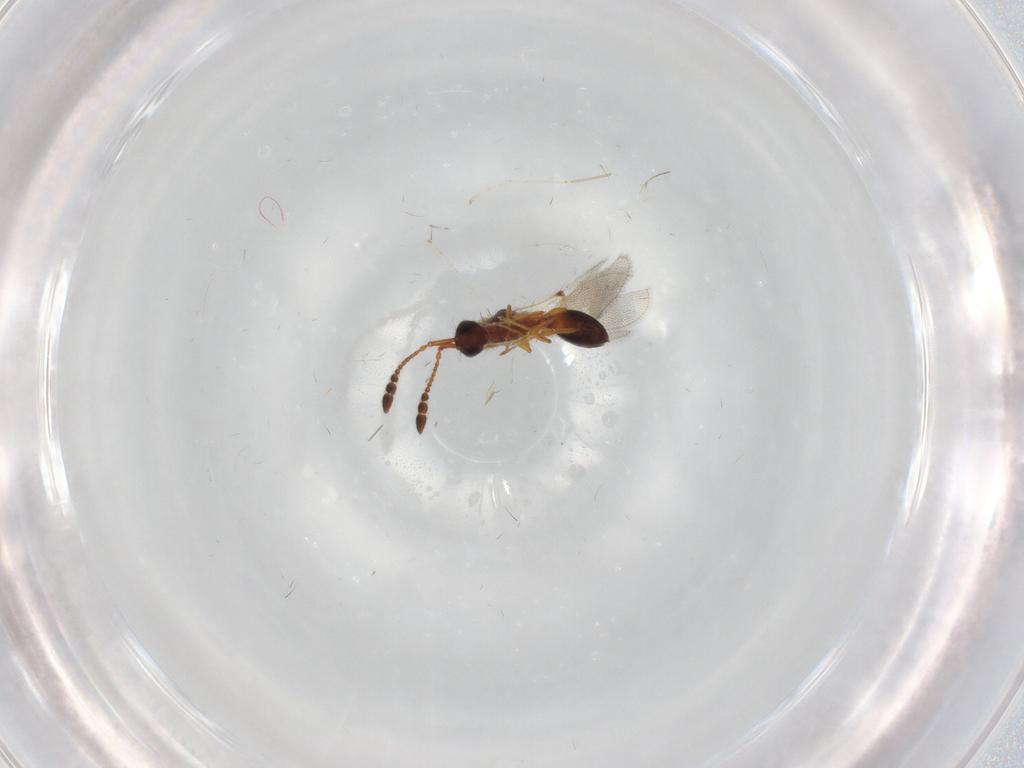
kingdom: Animalia
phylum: Arthropoda
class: Insecta
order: Hymenoptera
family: Diapriidae
